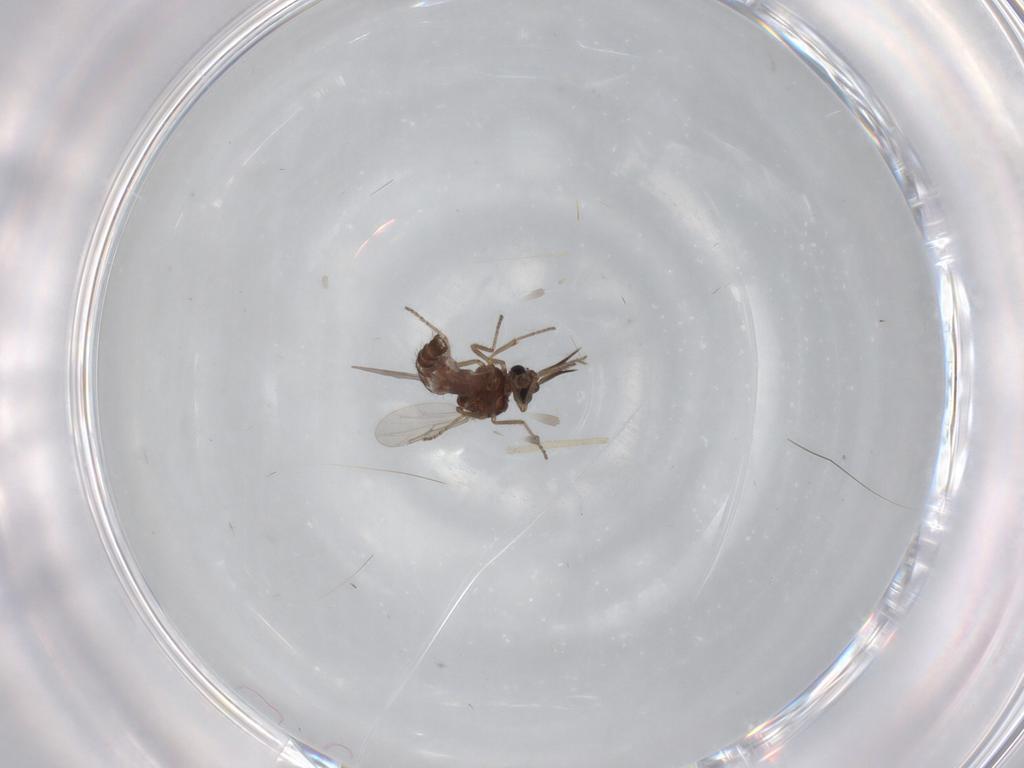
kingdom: Animalia
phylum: Arthropoda
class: Insecta
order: Diptera
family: Ceratopogonidae
